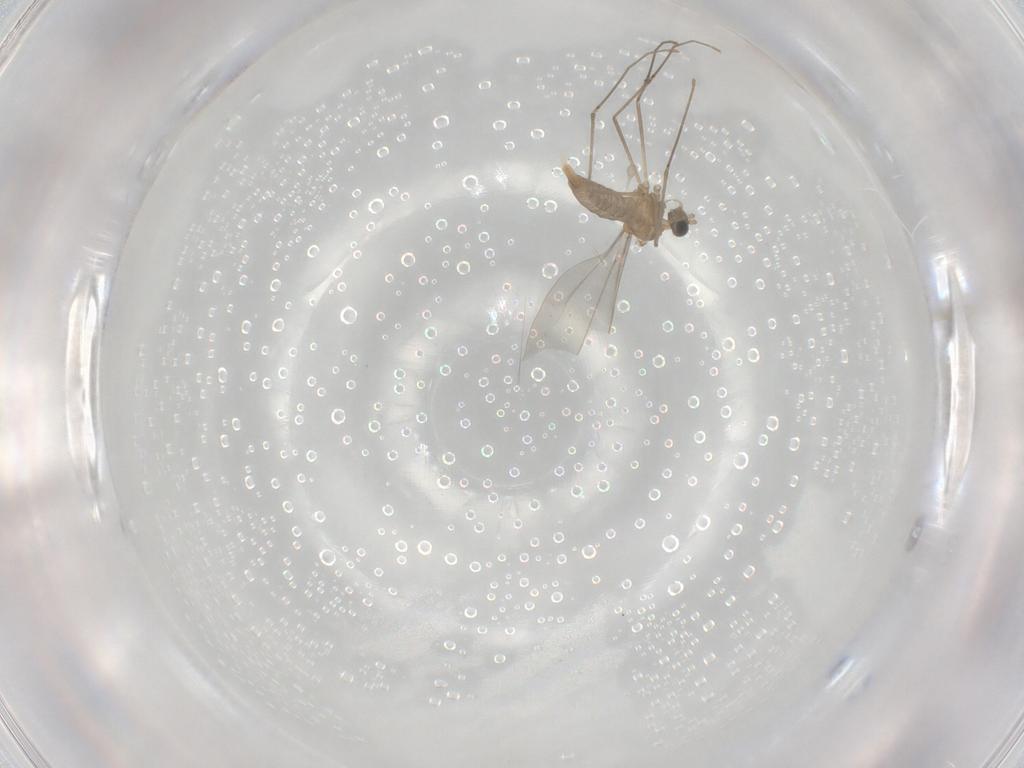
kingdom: Animalia
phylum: Arthropoda
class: Insecta
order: Diptera
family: Cecidomyiidae
